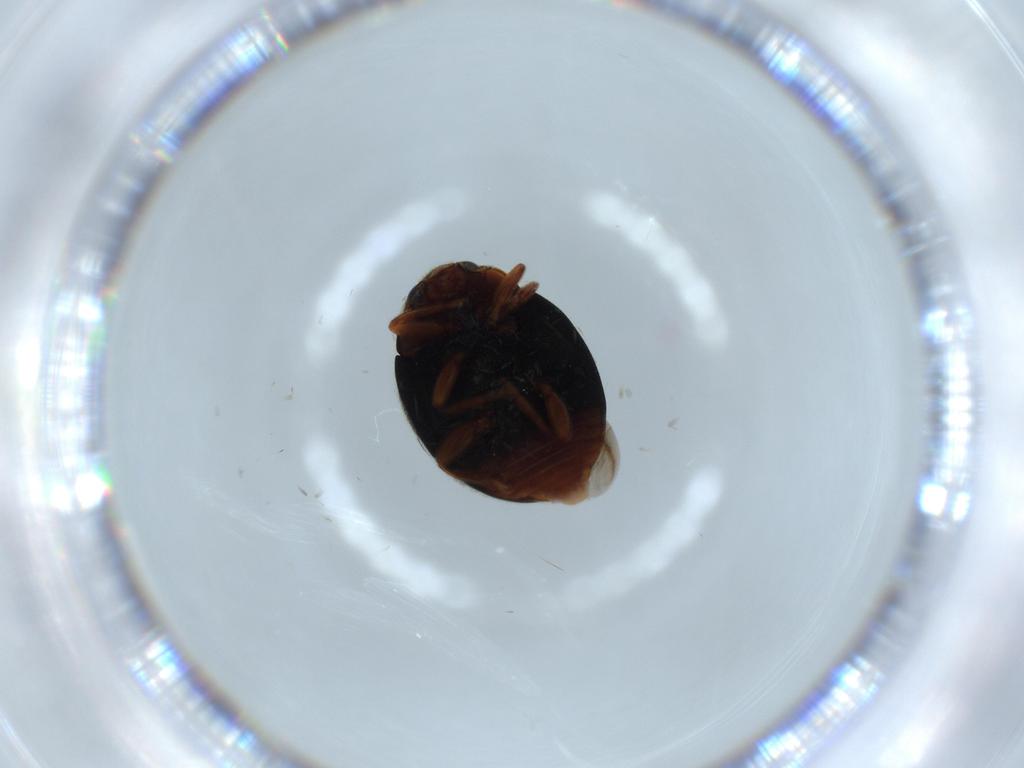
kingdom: Animalia
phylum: Arthropoda
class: Insecta
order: Coleoptera
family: Coccinellidae
